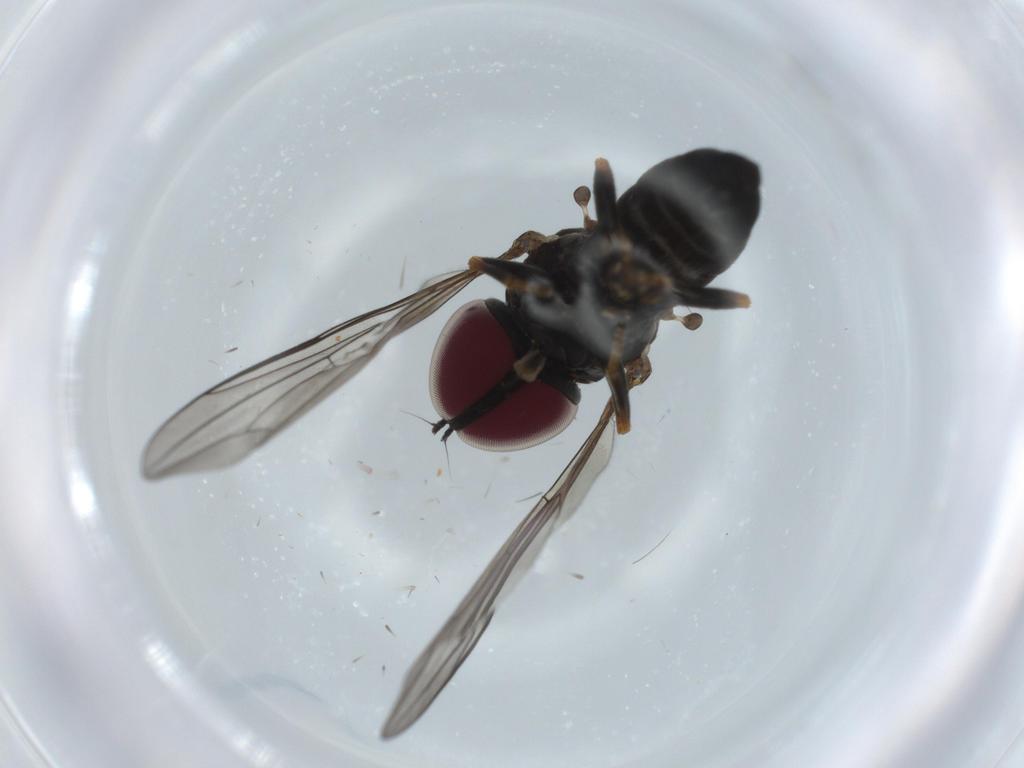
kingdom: Animalia
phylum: Arthropoda
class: Insecta
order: Diptera
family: Pipunculidae
